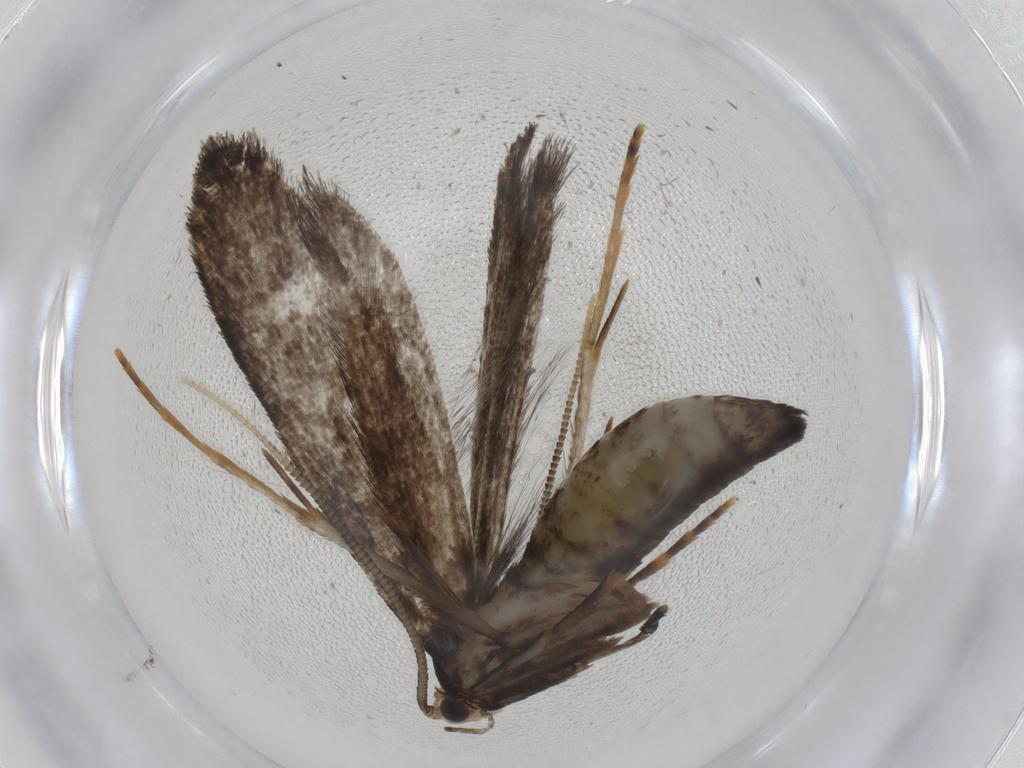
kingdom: Animalia
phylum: Arthropoda
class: Insecta
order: Lepidoptera
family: Tineidae
